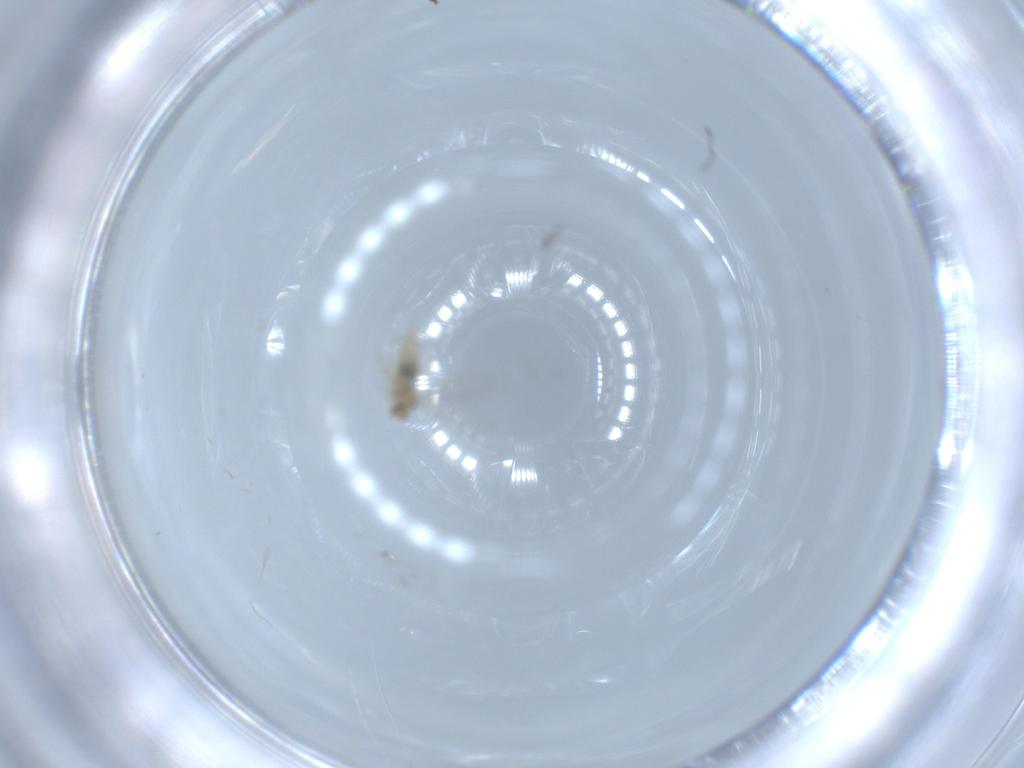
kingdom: Animalia
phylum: Arthropoda
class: Insecta
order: Diptera
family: Cecidomyiidae
